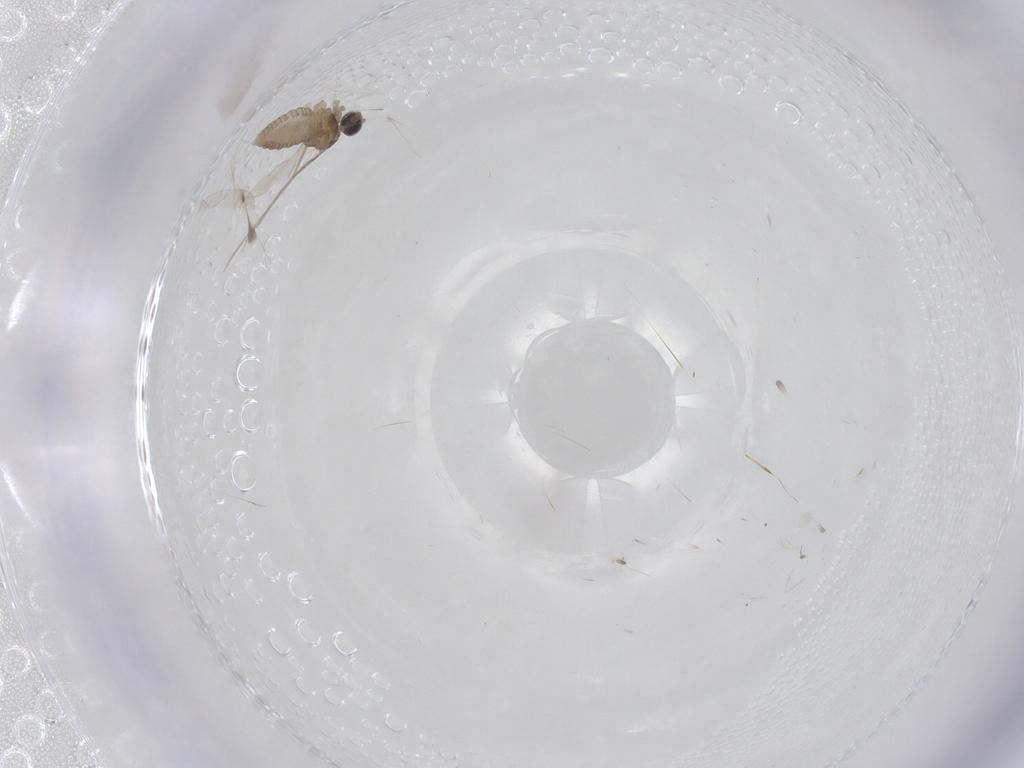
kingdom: Animalia
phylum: Arthropoda
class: Insecta
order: Diptera
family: Cecidomyiidae
